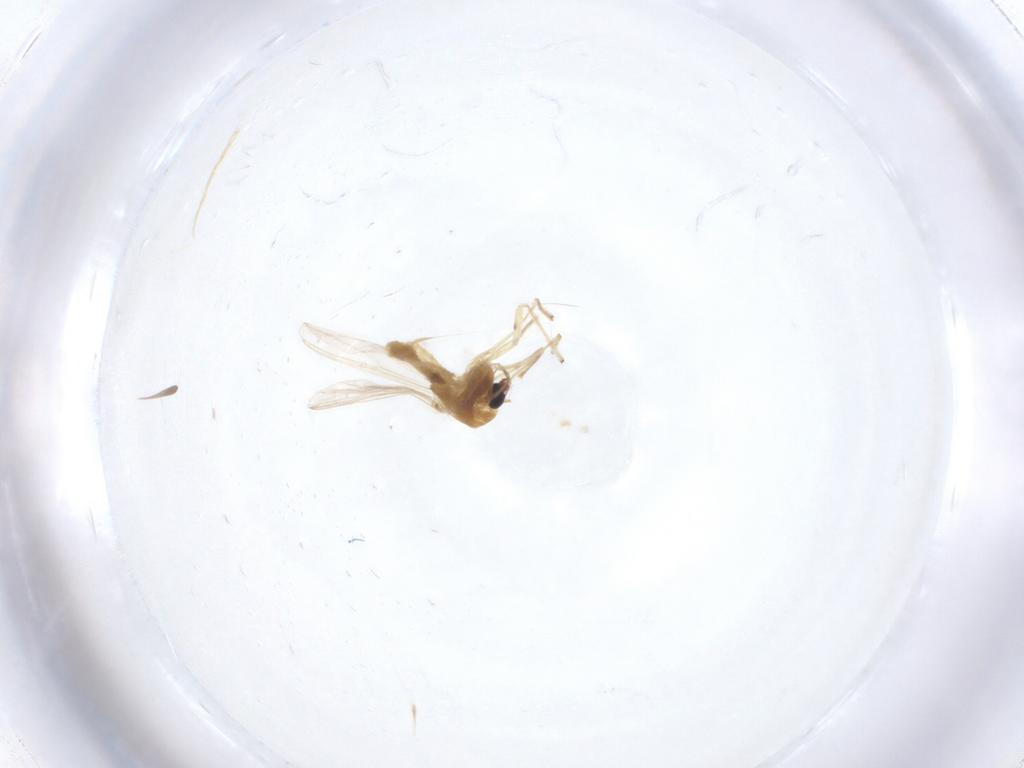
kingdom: Animalia
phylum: Arthropoda
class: Insecta
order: Diptera
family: Chironomidae
